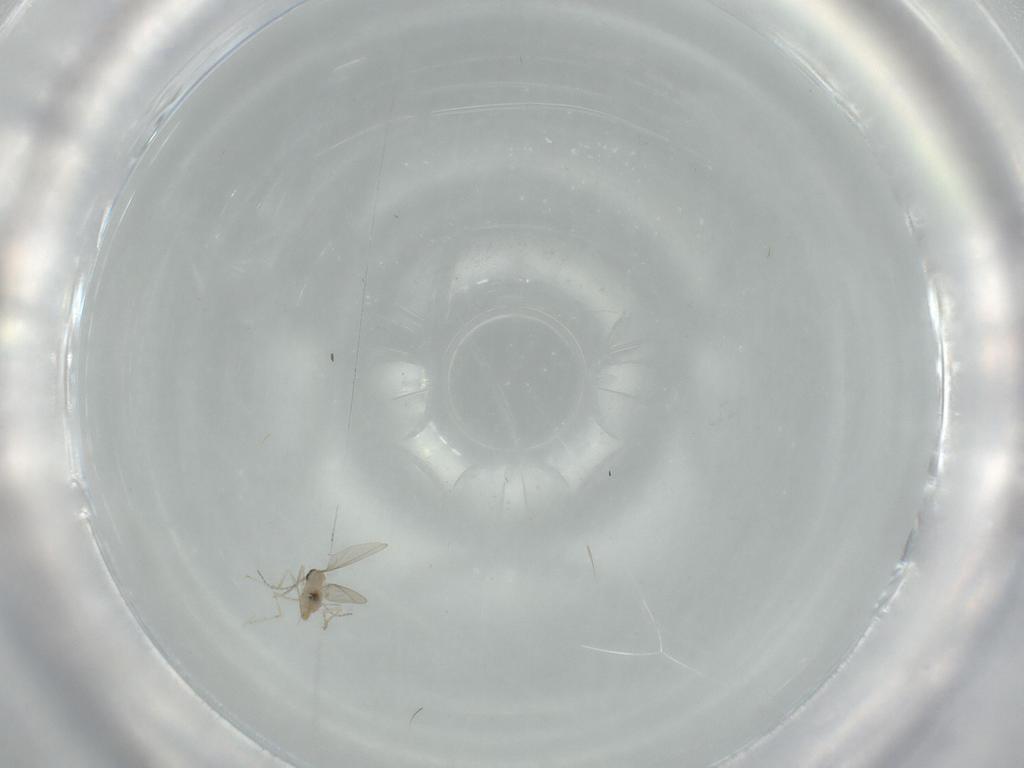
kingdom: Animalia
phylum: Arthropoda
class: Insecta
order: Diptera
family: Cecidomyiidae
